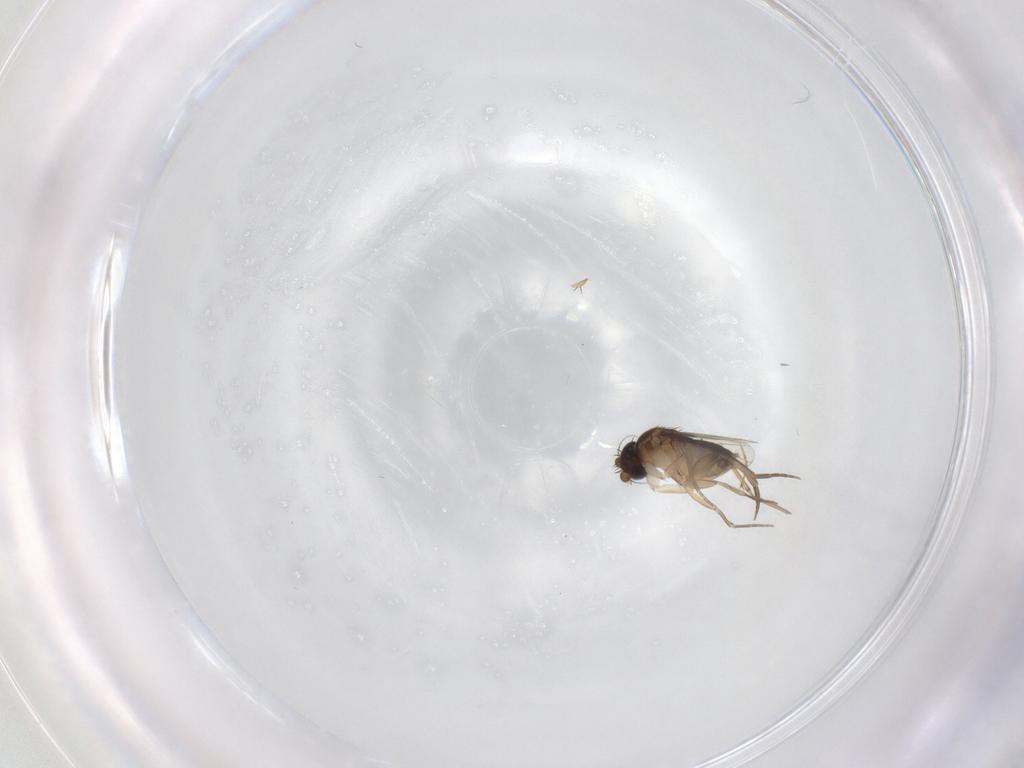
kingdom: Animalia
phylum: Arthropoda
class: Insecta
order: Diptera
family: Ceratopogonidae
